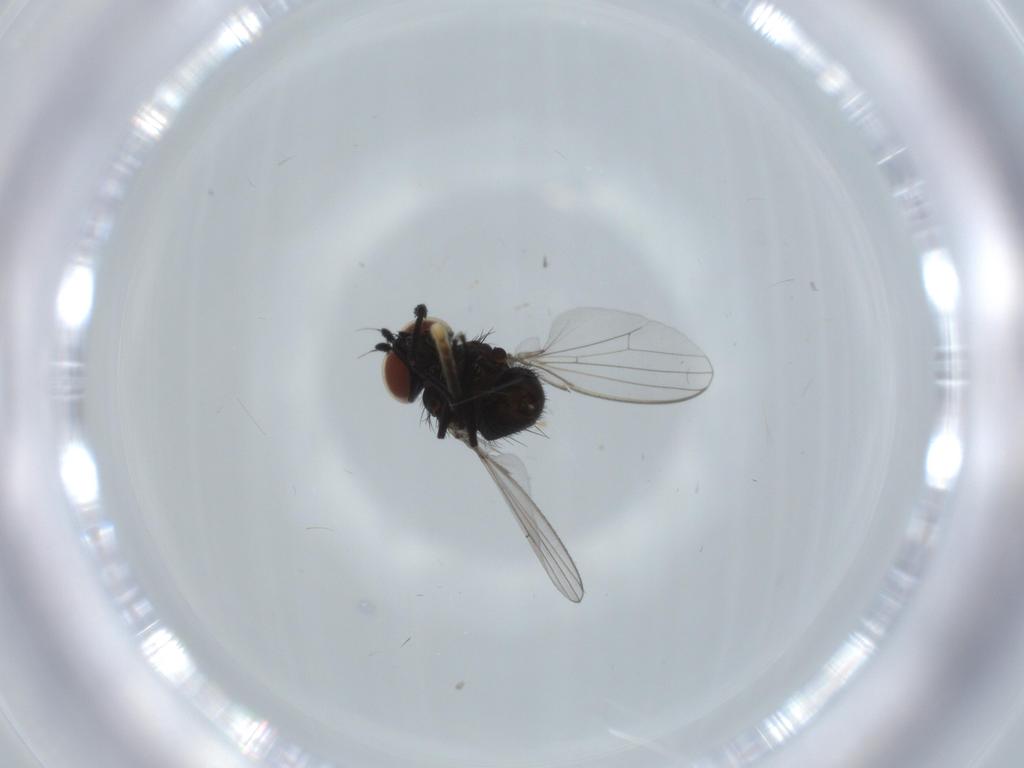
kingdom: Animalia
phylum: Arthropoda
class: Insecta
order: Diptera
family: Milichiidae
